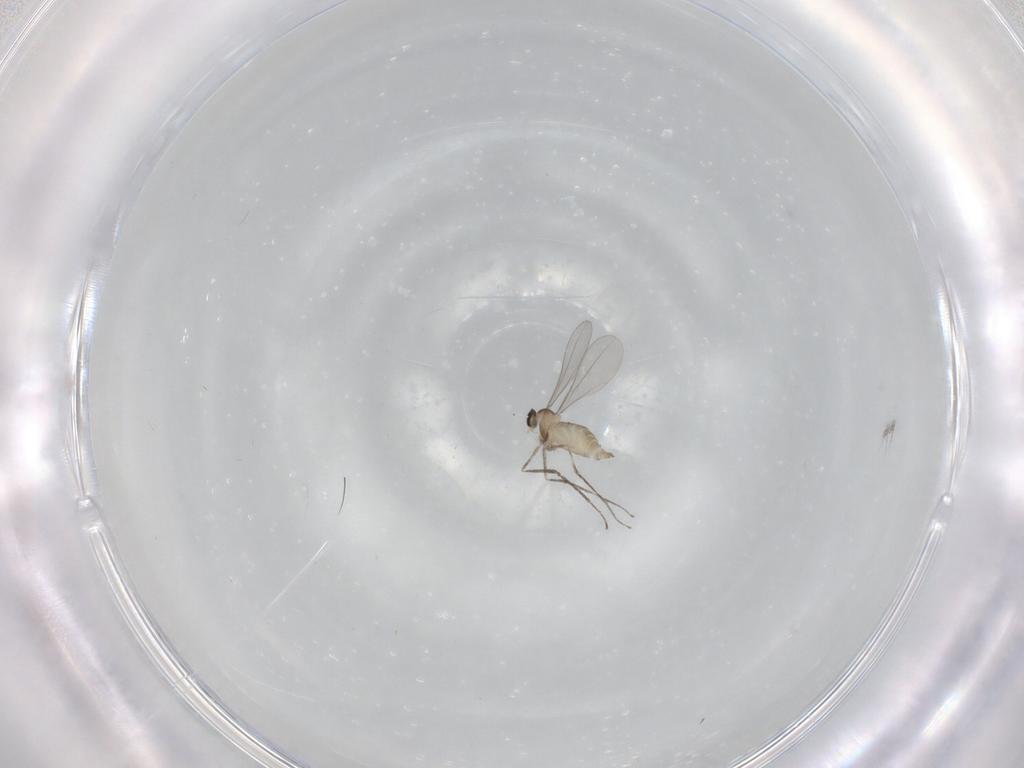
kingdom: Animalia
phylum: Arthropoda
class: Insecta
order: Diptera
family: Cecidomyiidae
